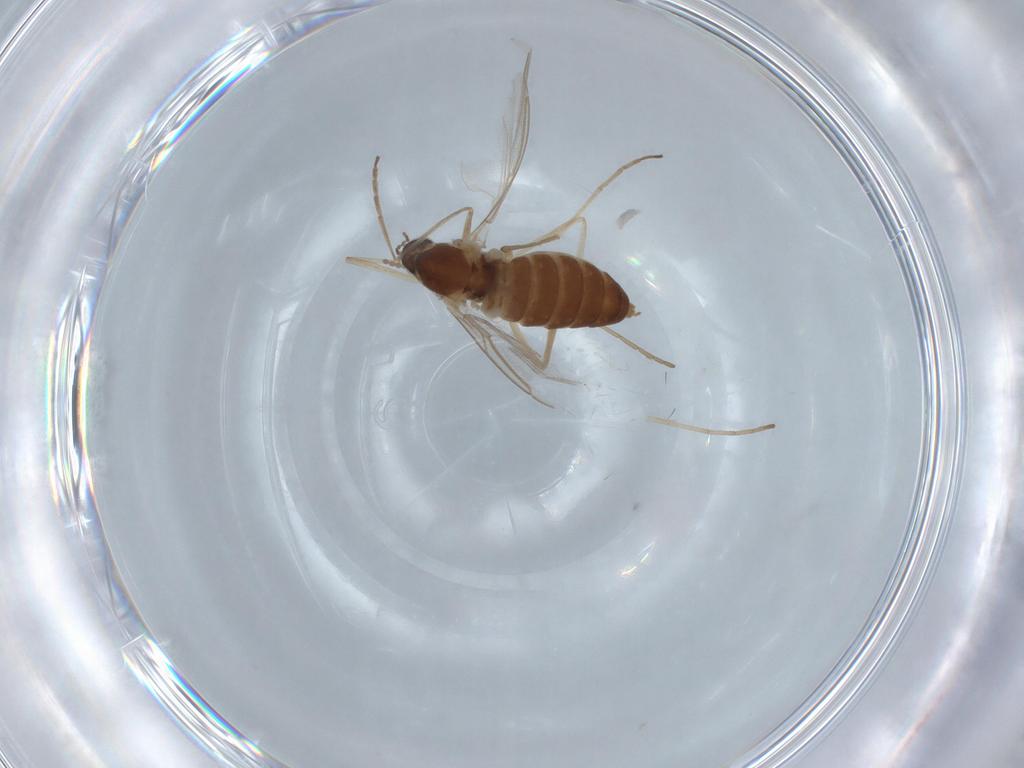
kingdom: Animalia
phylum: Arthropoda
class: Insecta
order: Diptera
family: Cecidomyiidae
